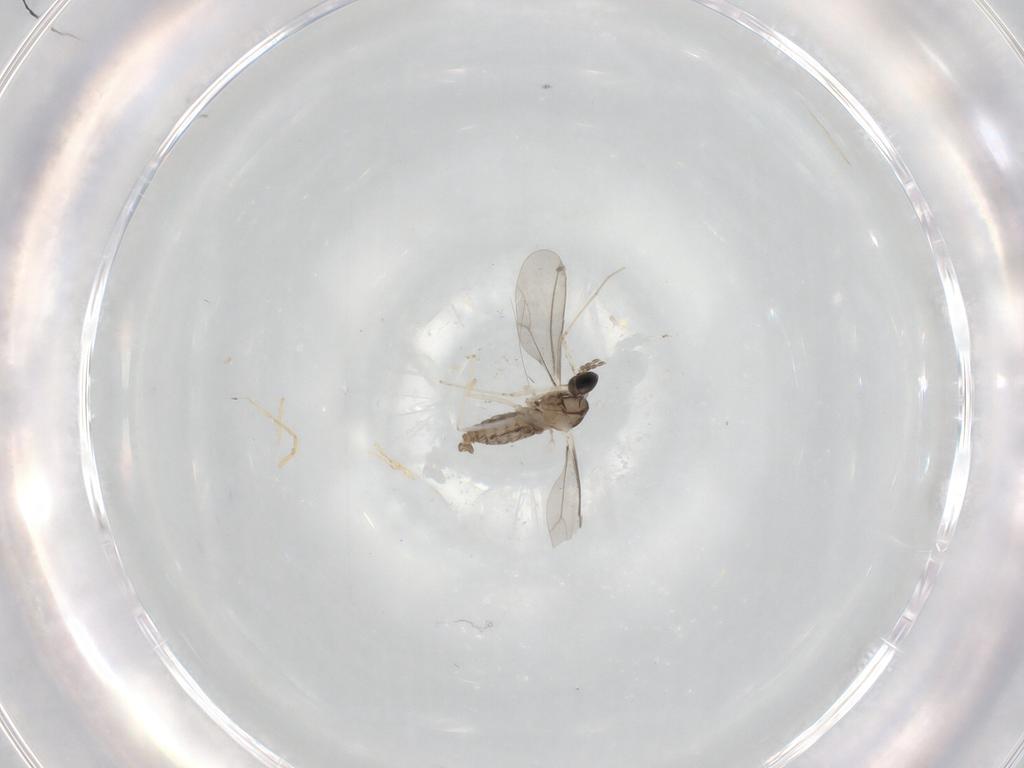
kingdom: Animalia
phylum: Arthropoda
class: Insecta
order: Diptera
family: Cecidomyiidae
